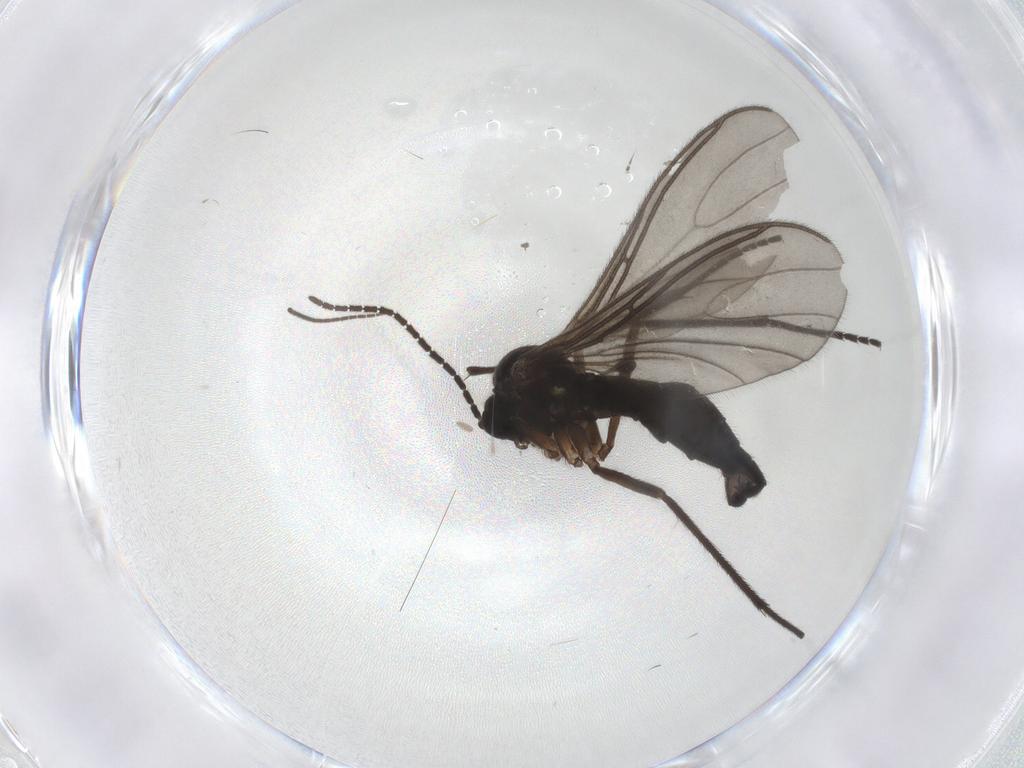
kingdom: Animalia
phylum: Arthropoda
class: Insecta
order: Diptera
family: Sciaridae
